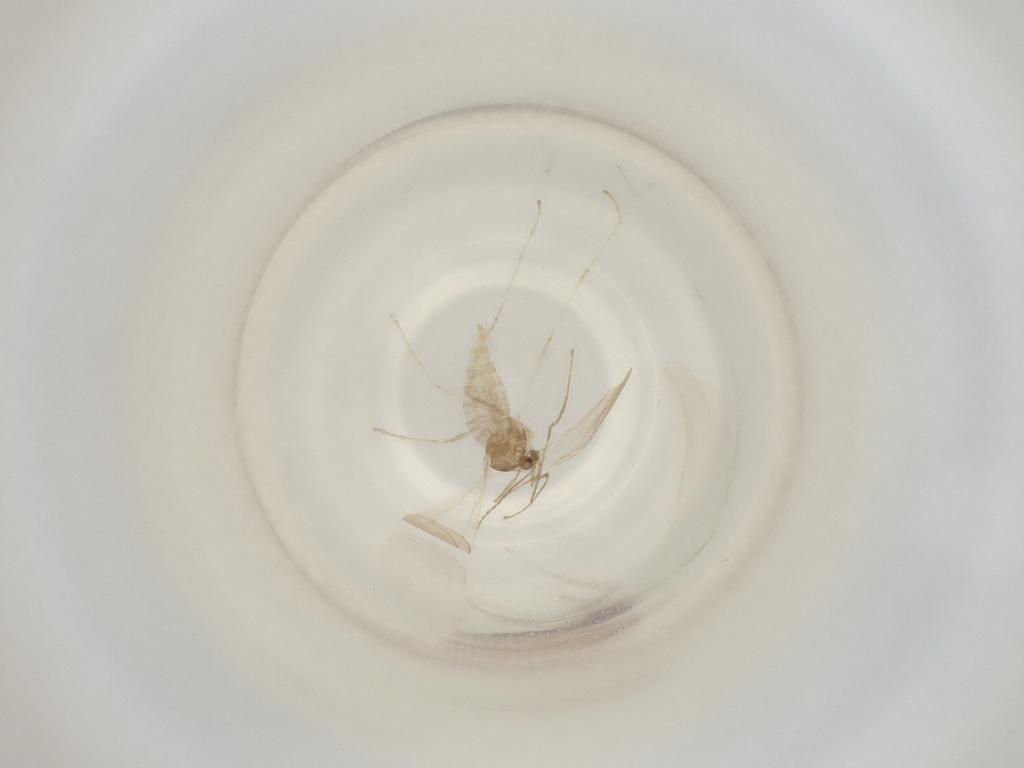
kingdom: Animalia
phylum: Arthropoda
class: Insecta
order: Diptera
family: Cecidomyiidae
